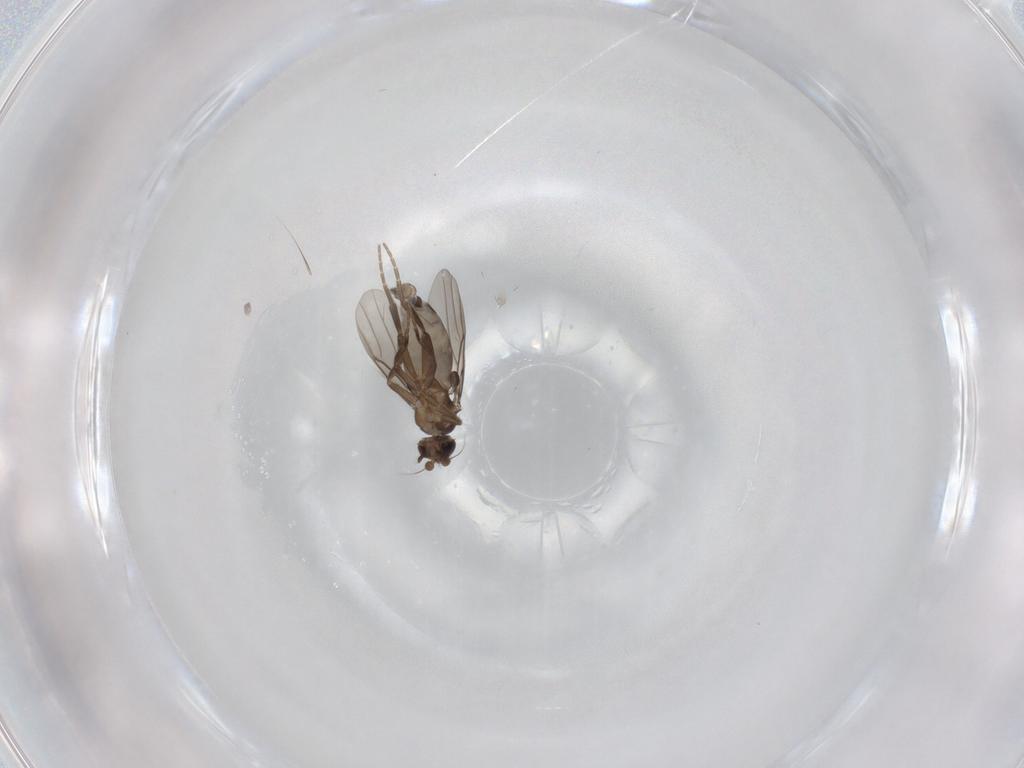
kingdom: Animalia
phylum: Arthropoda
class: Insecta
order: Diptera
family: Phoridae
